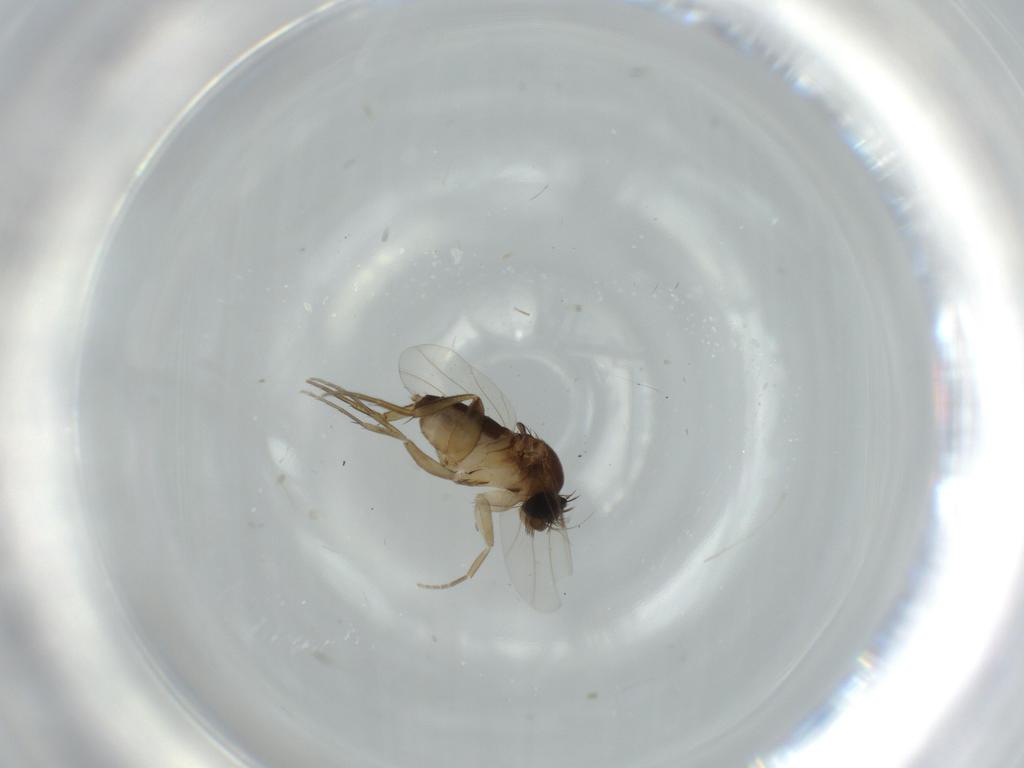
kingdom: Animalia
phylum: Arthropoda
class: Insecta
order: Diptera
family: Phoridae
